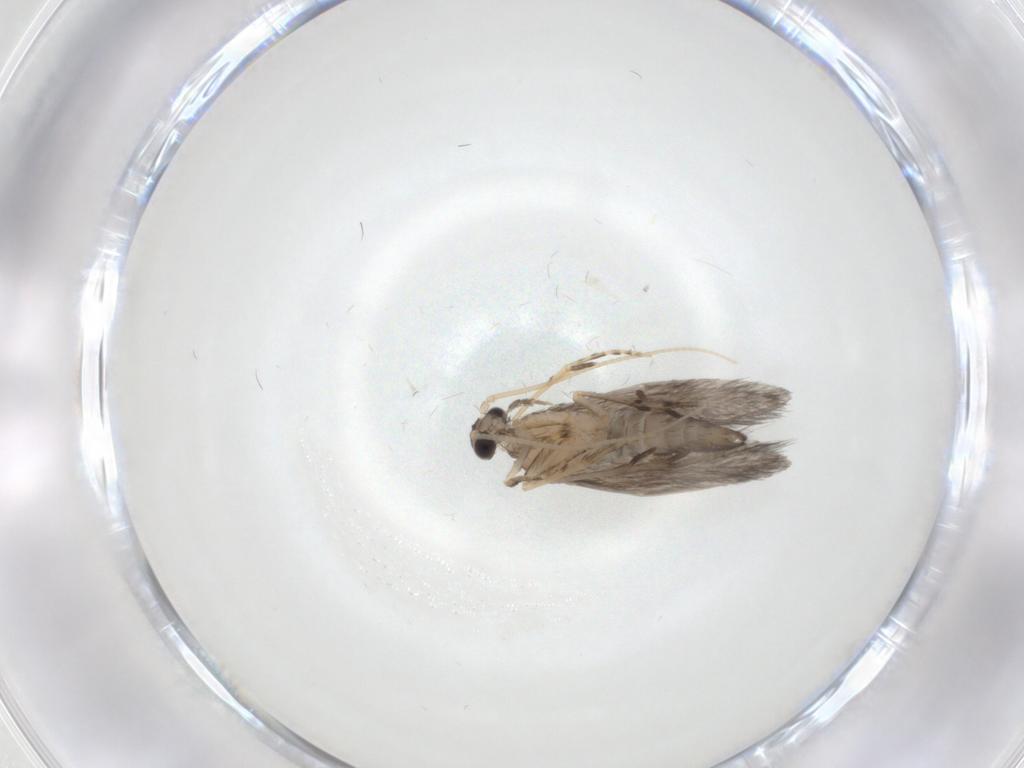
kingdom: Animalia
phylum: Arthropoda
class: Insecta
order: Trichoptera
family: Hydroptilidae
